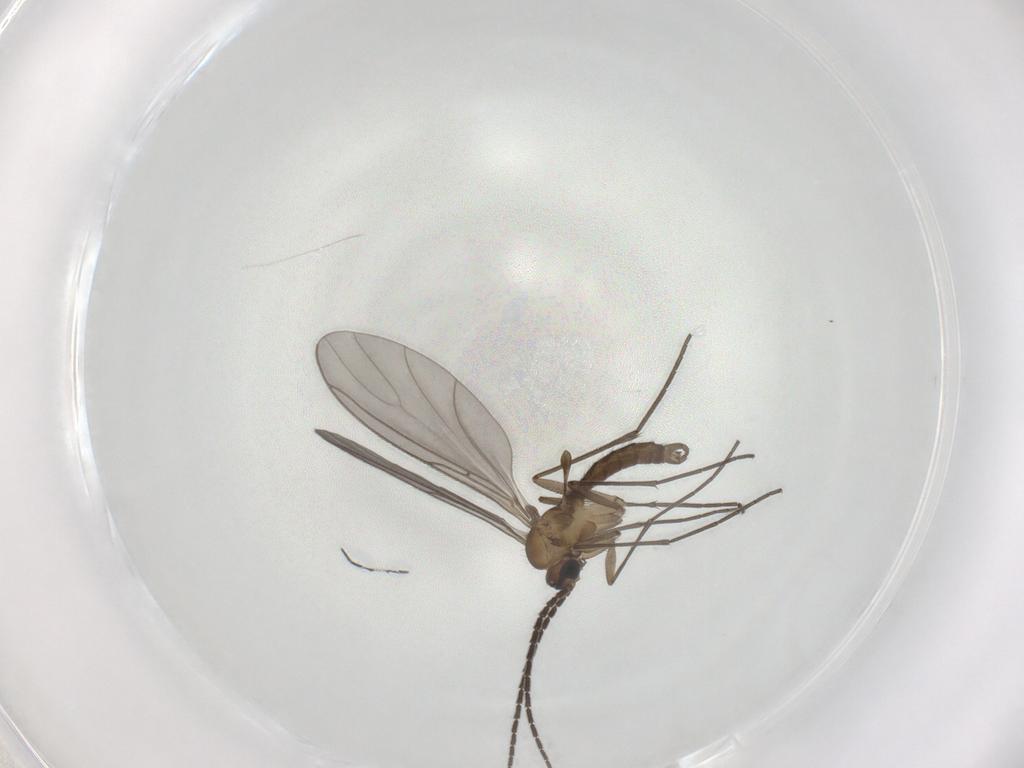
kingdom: Animalia
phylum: Arthropoda
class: Insecta
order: Diptera
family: Sciaridae
